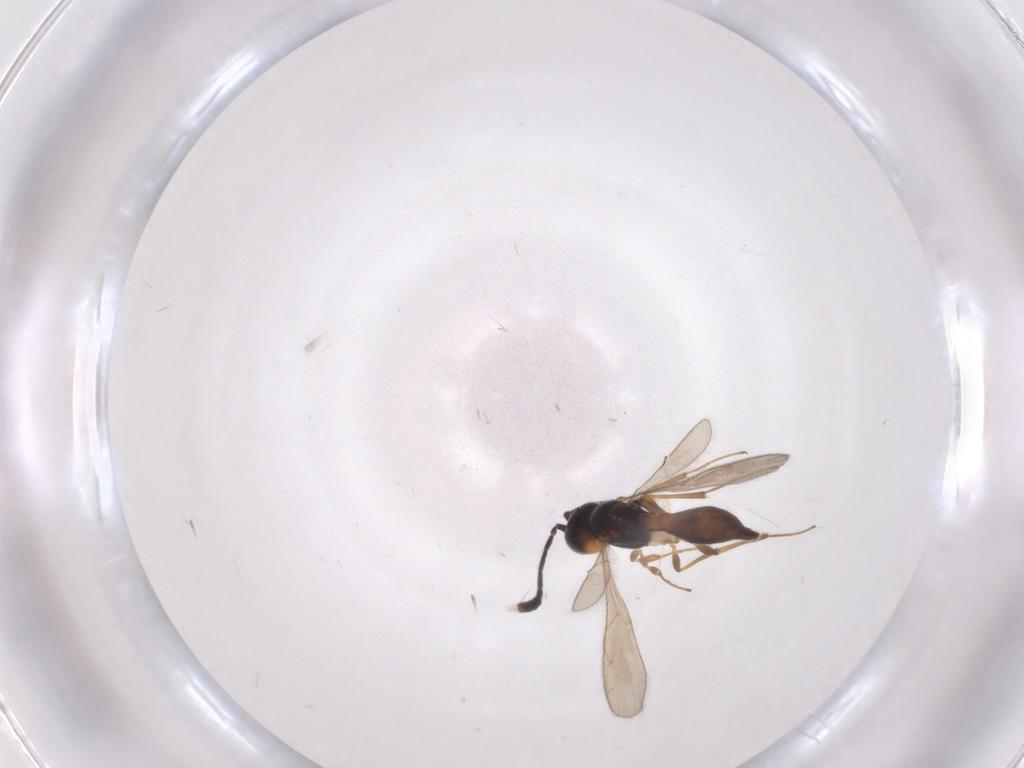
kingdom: Animalia
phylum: Arthropoda
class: Insecta
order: Hymenoptera
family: Scelionidae
